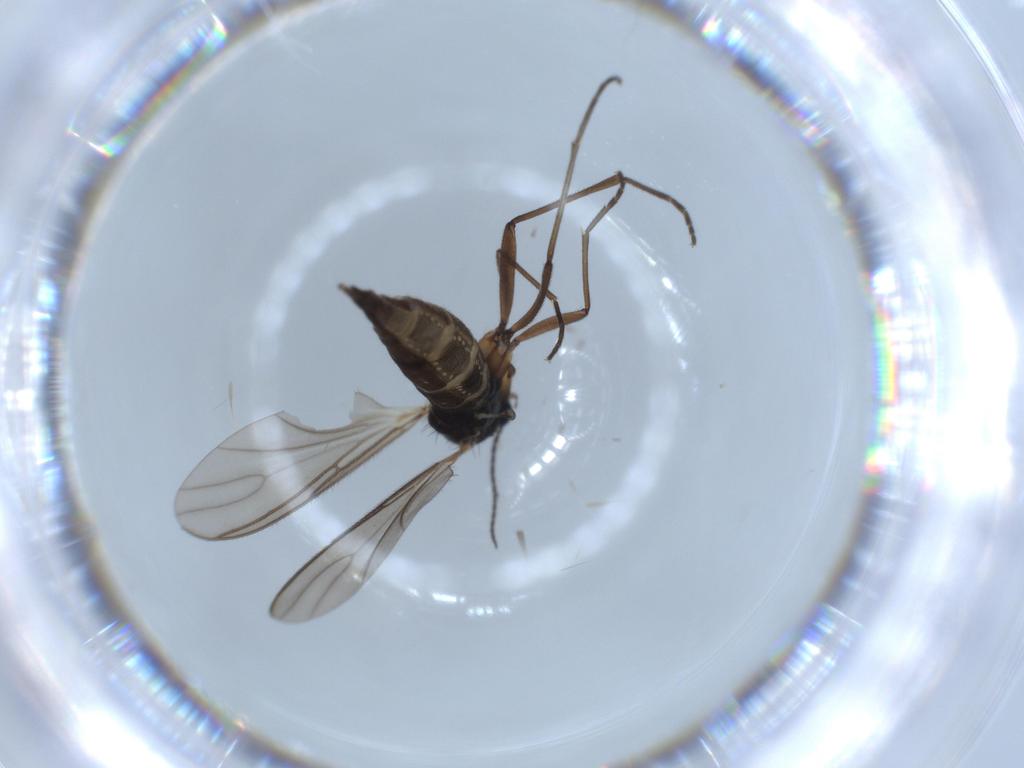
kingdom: Animalia
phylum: Arthropoda
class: Insecta
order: Diptera
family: Sciaridae
